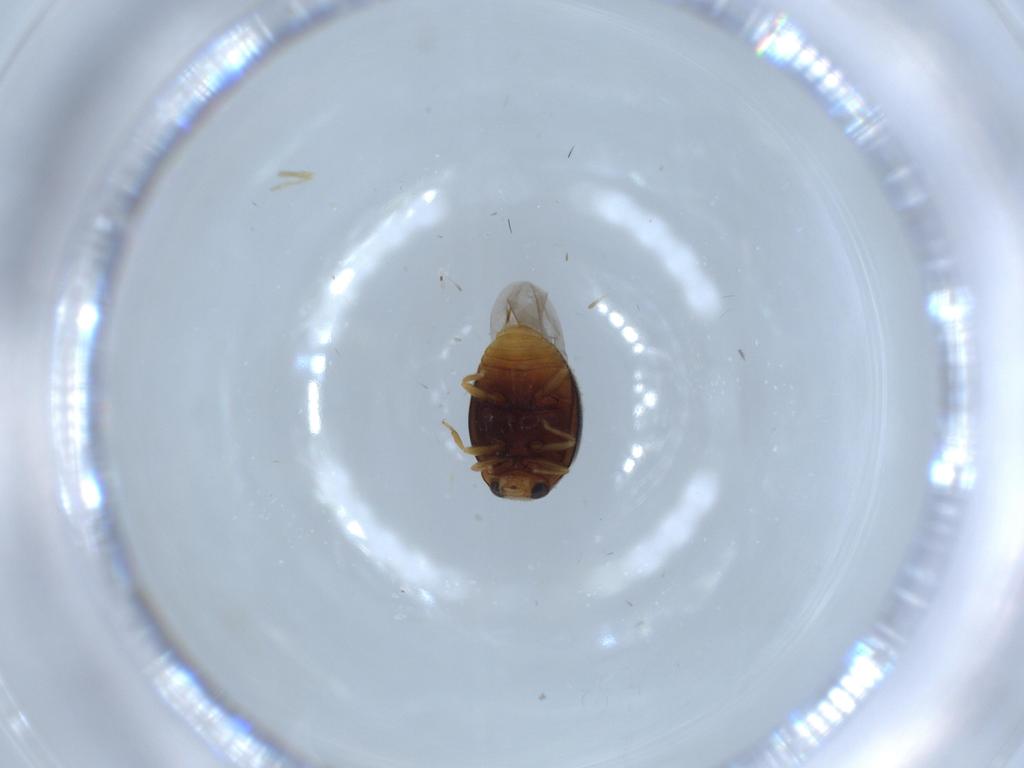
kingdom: Animalia
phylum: Arthropoda
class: Insecta
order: Coleoptera
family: Coccinellidae
